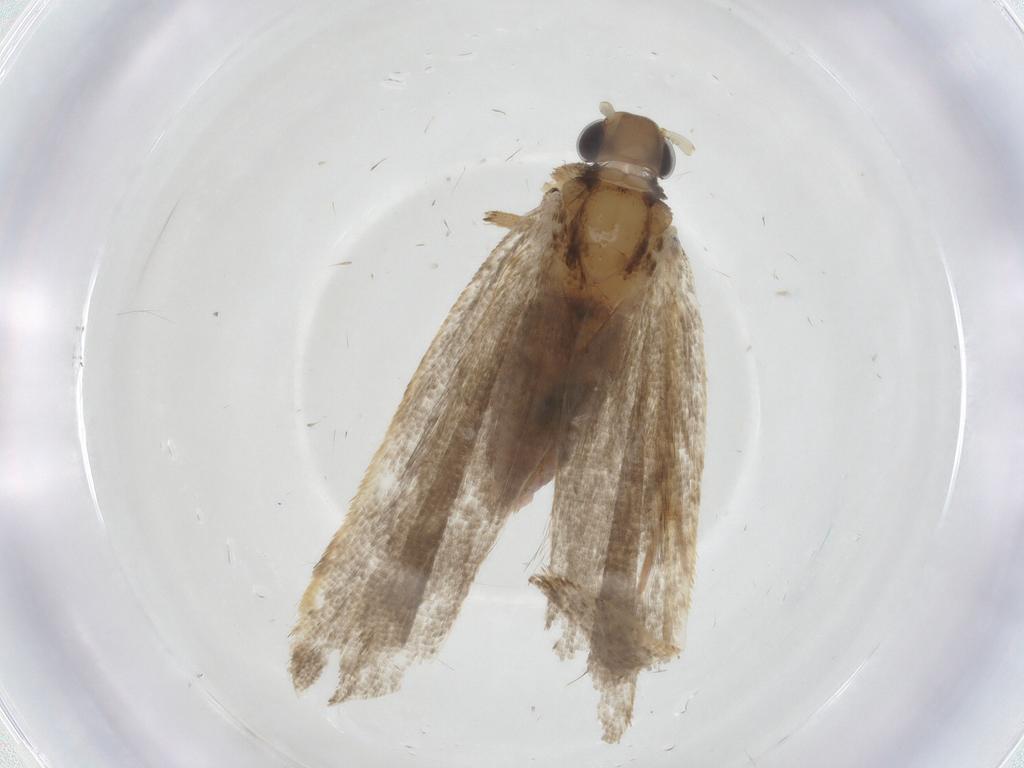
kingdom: Animalia
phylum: Arthropoda
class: Insecta
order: Lepidoptera
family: Lecithoceridae
